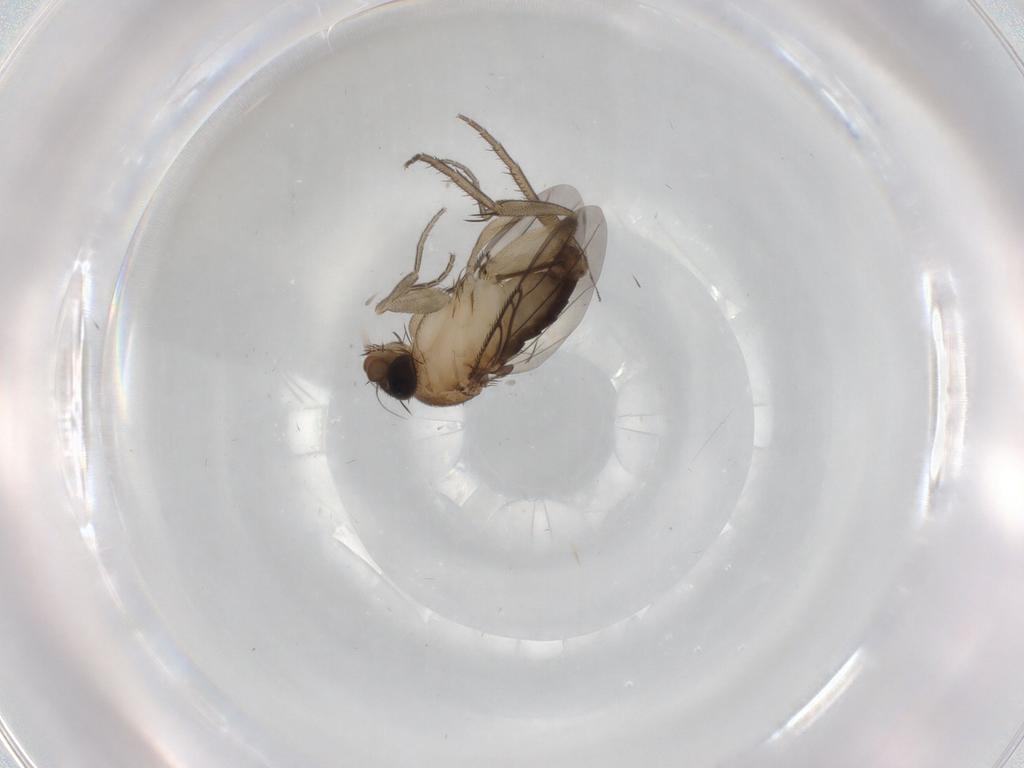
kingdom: Animalia
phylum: Arthropoda
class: Insecta
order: Diptera
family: Phoridae
